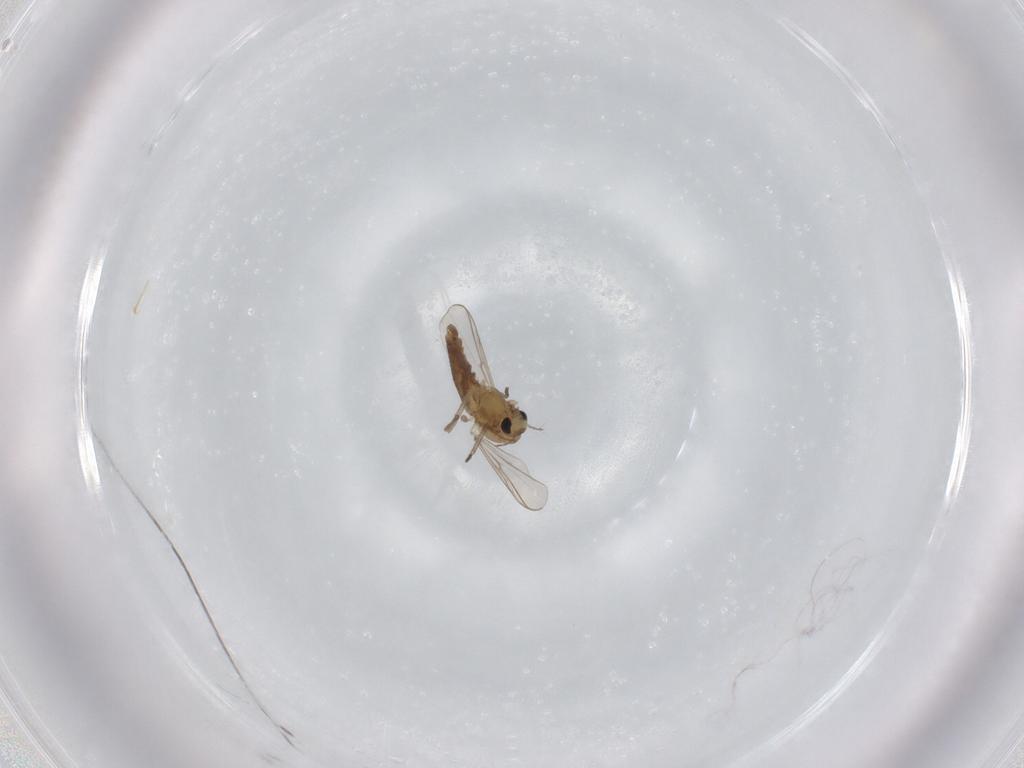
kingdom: Animalia
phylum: Arthropoda
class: Insecta
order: Diptera
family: Chironomidae
